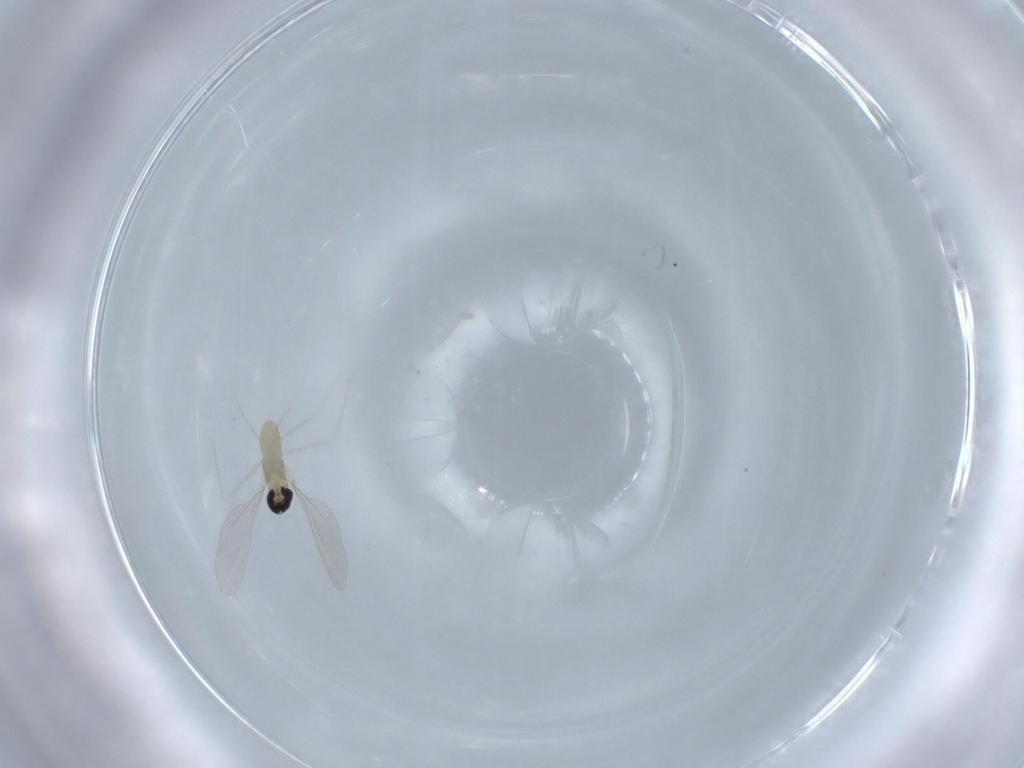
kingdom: Animalia
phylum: Arthropoda
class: Insecta
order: Diptera
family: Cecidomyiidae
